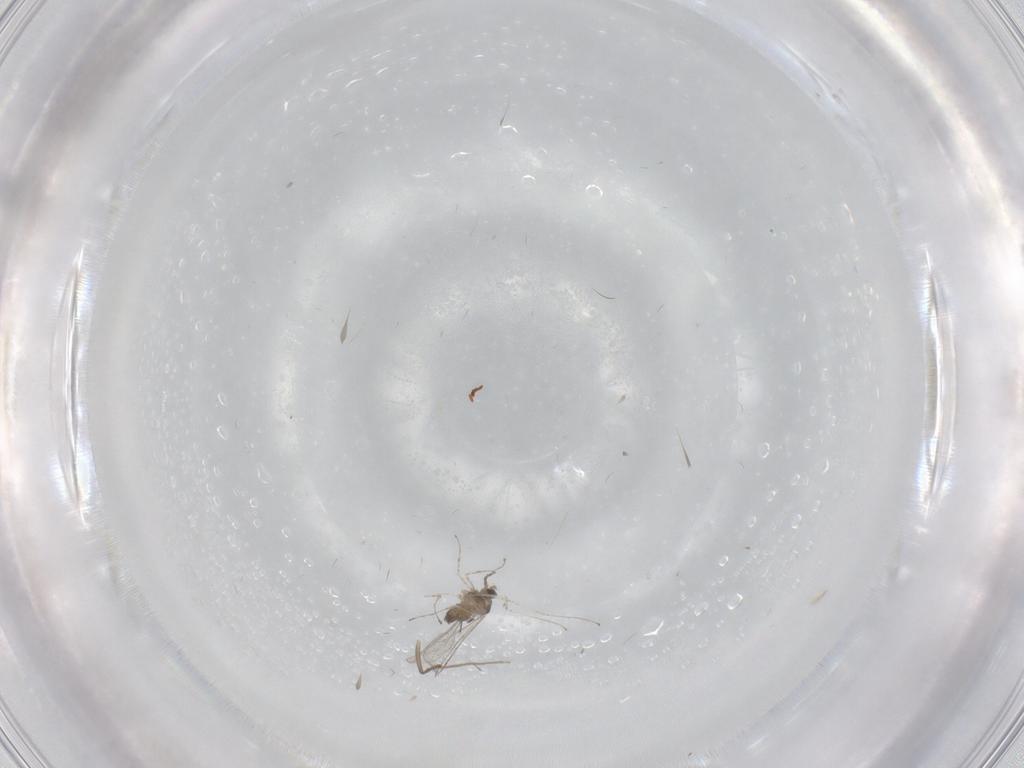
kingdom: Animalia
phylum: Arthropoda
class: Insecta
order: Diptera
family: Cecidomyiidae
